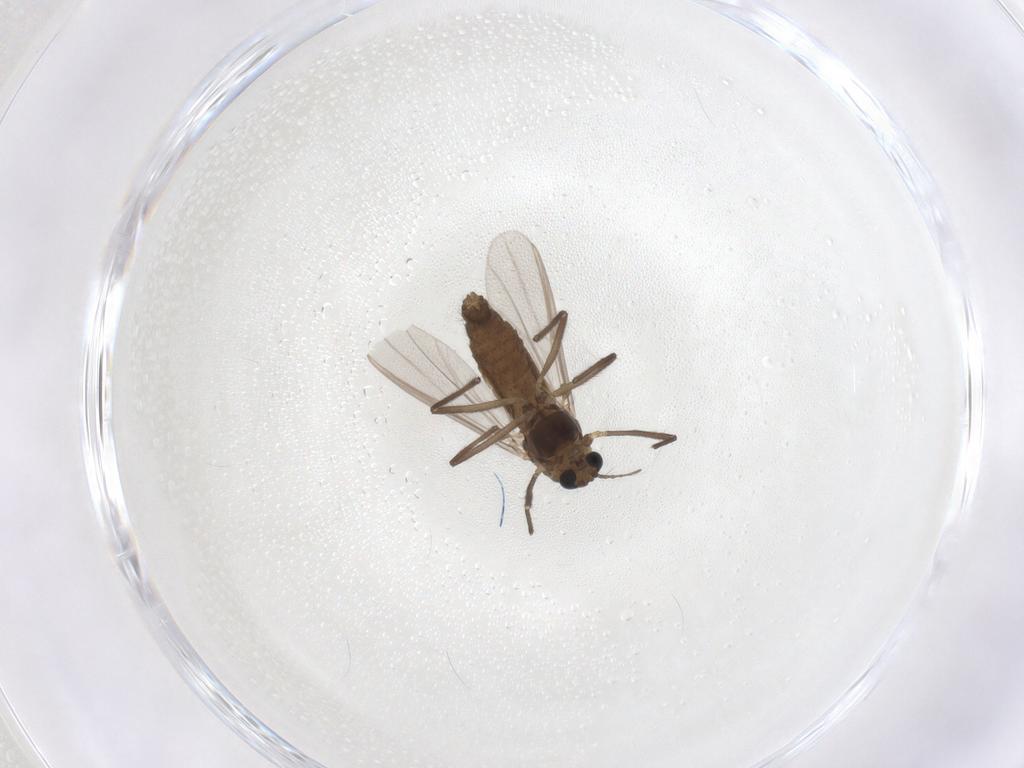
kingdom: Animalia
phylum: Arthropoda
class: Insecta
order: Diptera
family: Chironomidae
